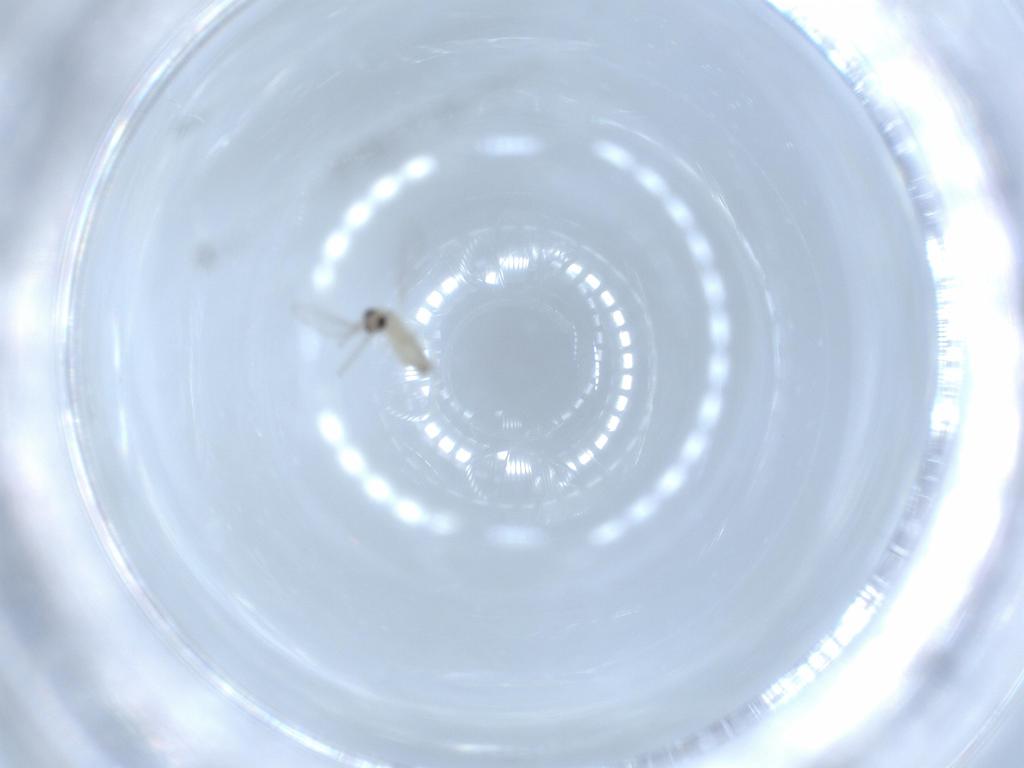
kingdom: Animalia
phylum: Arthropoda
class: Insecta
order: Diptera
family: Cecidomyiidae
